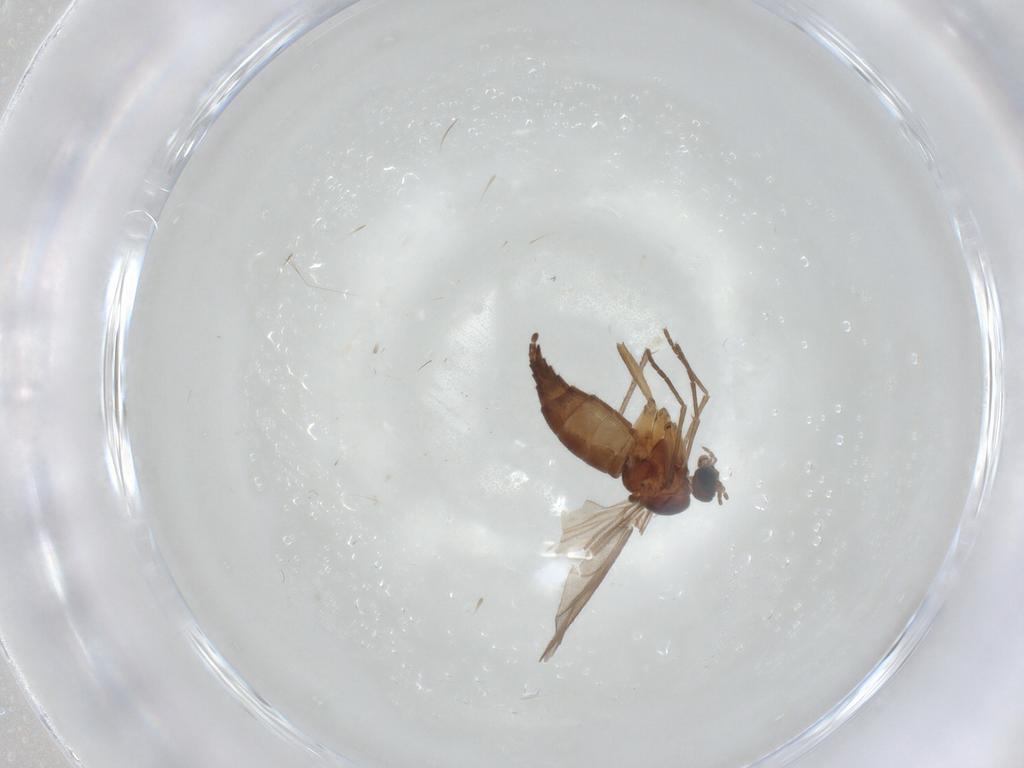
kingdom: Animalia
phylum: Arthropoda
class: Insecta
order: Diptera
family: Sciaridae
